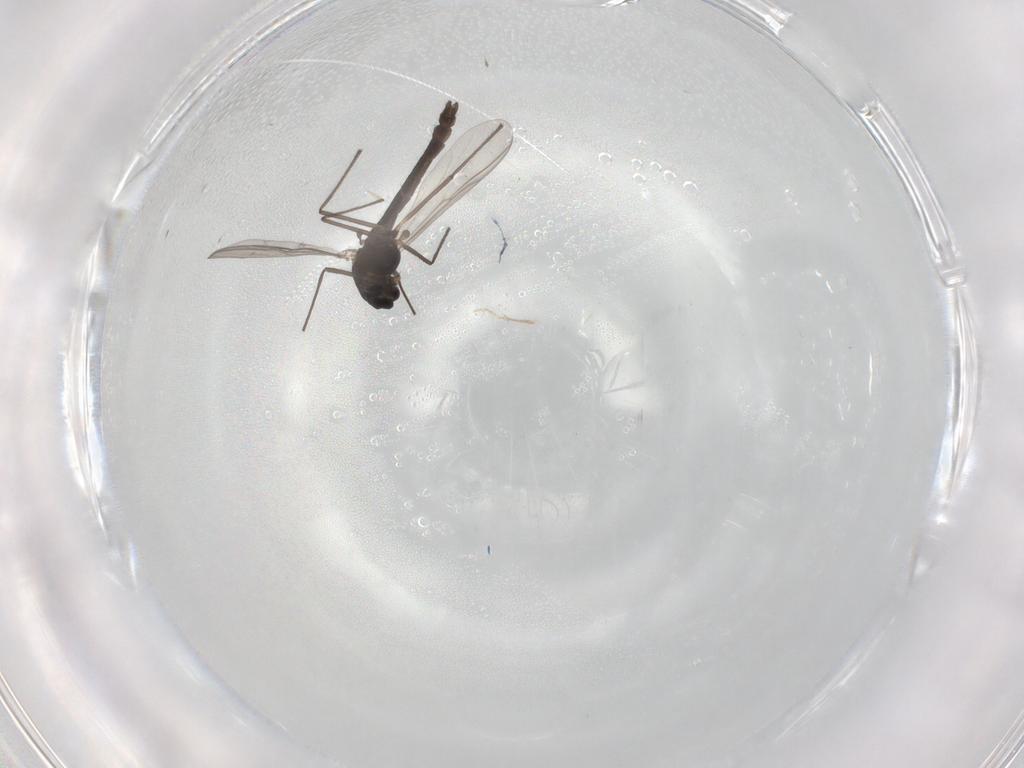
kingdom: Animalia
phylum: Arthropoda
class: Insecta
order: Diptera
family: Chironomidae
